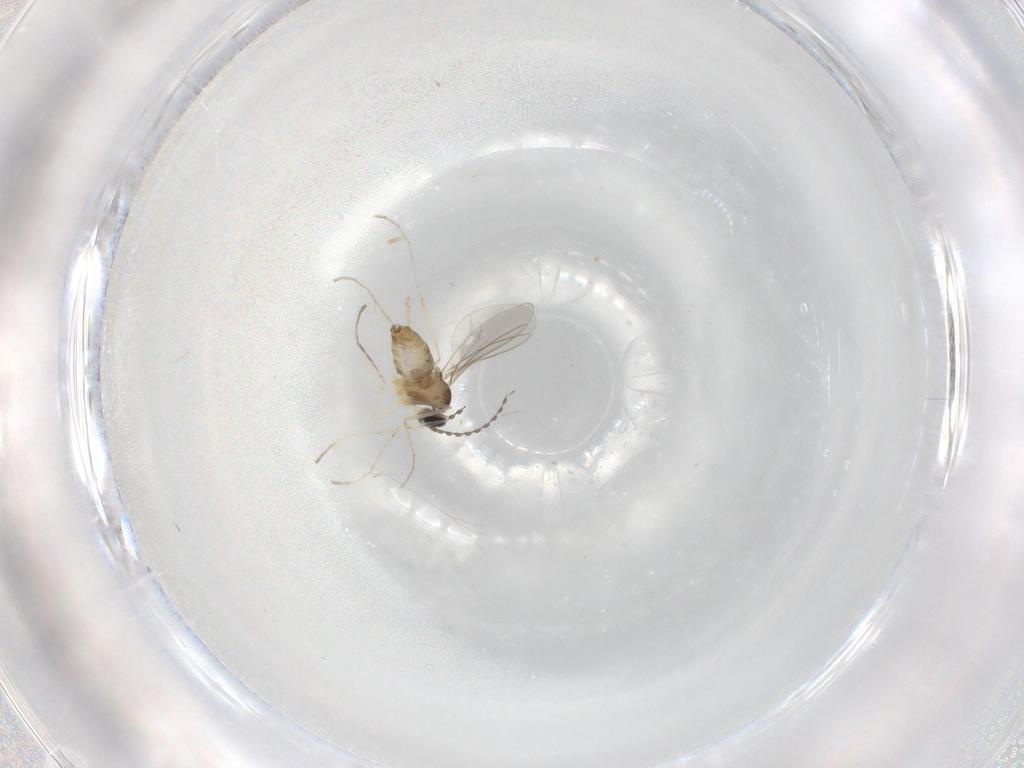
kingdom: Animalia
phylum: Arthropoda
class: Insecta
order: Diptera
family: Cecidomyiidae
